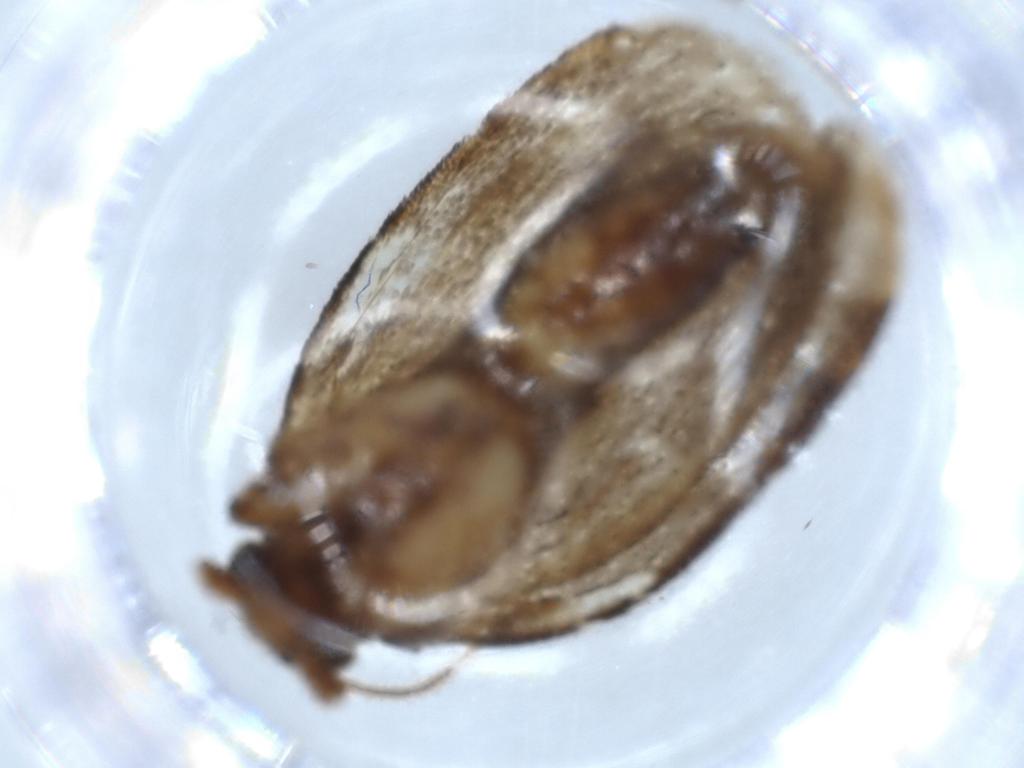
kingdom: Animalia
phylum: Arthropoda
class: Insecta
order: Lepidoptera
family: Tineidae
